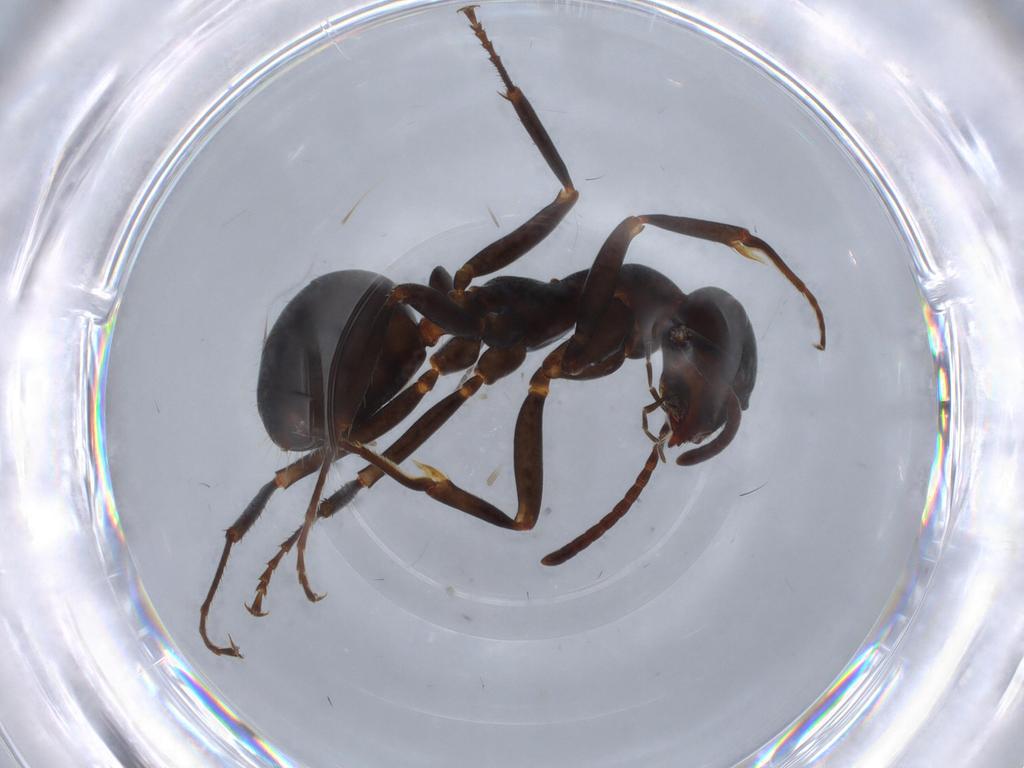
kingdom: Animalia
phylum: Arthropoda
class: Insecta
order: Hymenoptera
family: Formicidae
